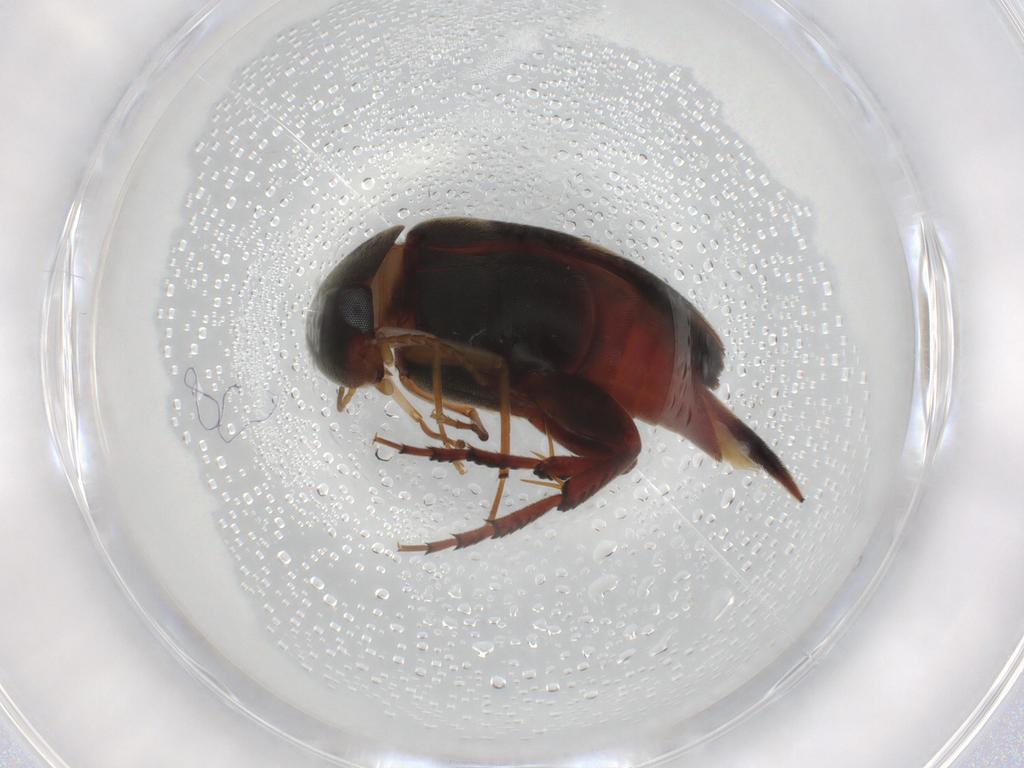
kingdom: Animalia
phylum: Arthropoda
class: Insecta
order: Coleoptera
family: Mordellidae
